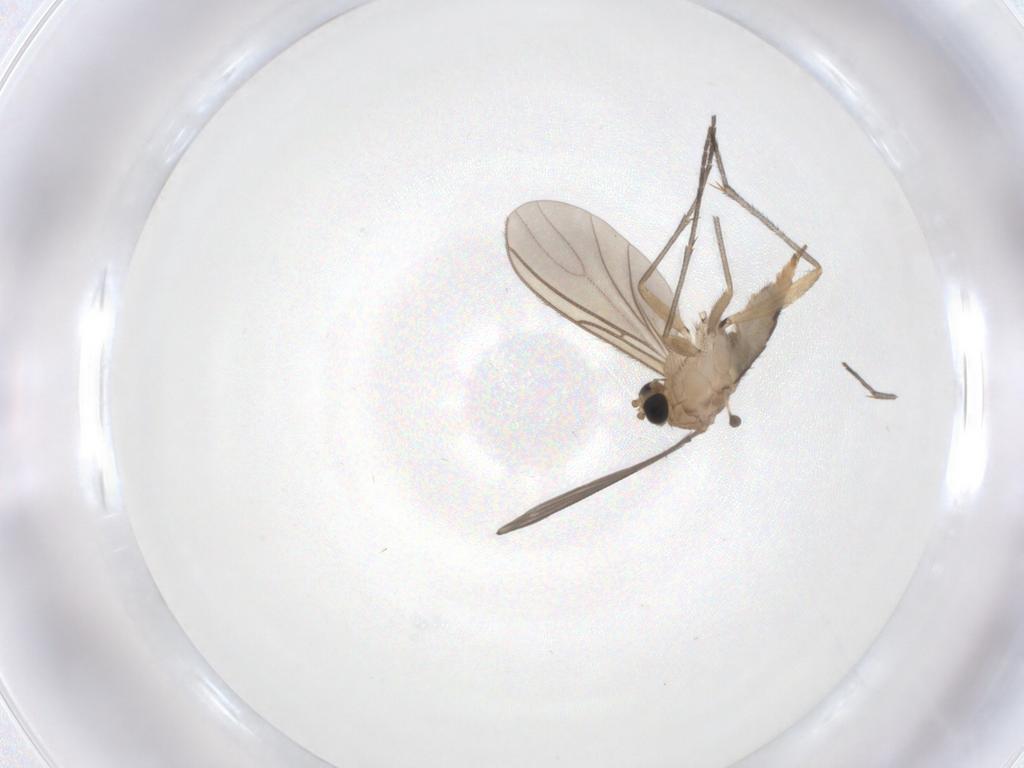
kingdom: Animalia
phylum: Arthropoda
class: Insecta
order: Diptera
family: Sciaridae
